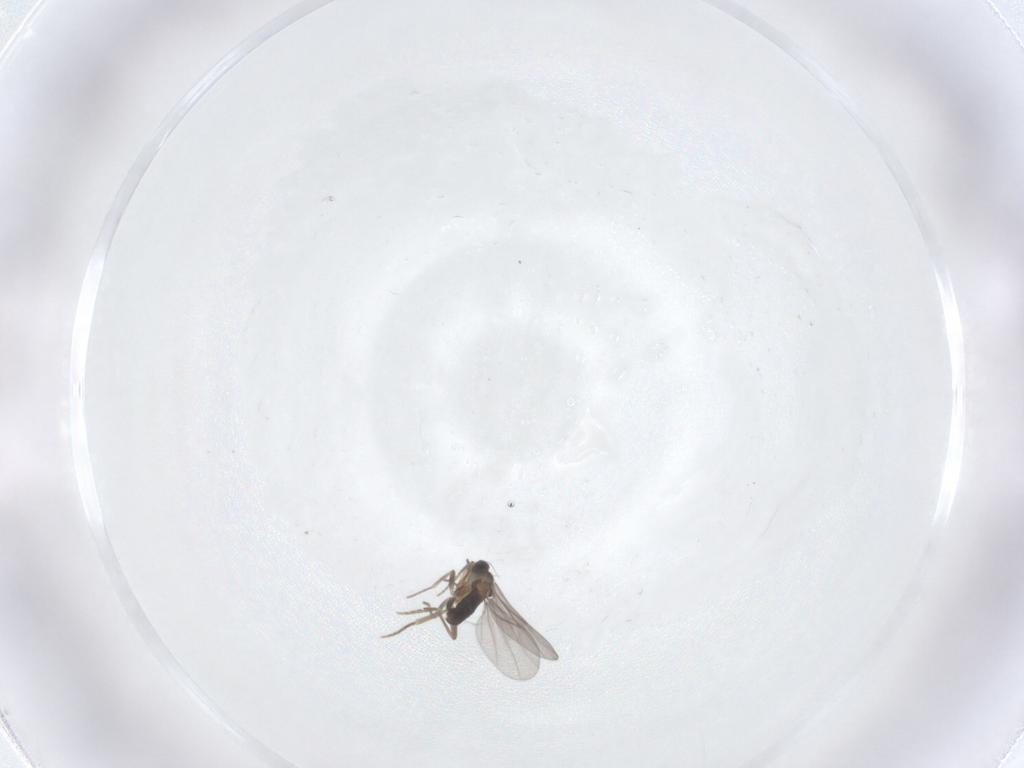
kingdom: Animalia
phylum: Arthropoda
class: Insecta
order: Diptera
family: Phoridae
